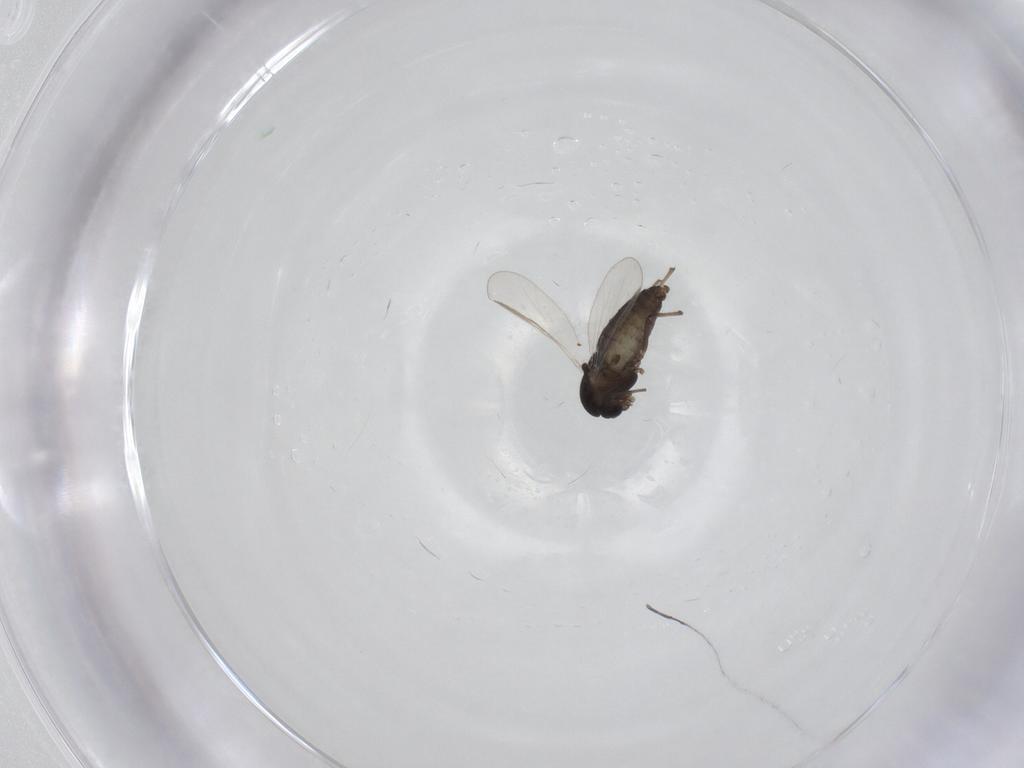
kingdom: Animalia
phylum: Arthropoda
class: Insecta
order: Diptera
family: Chironomidae
